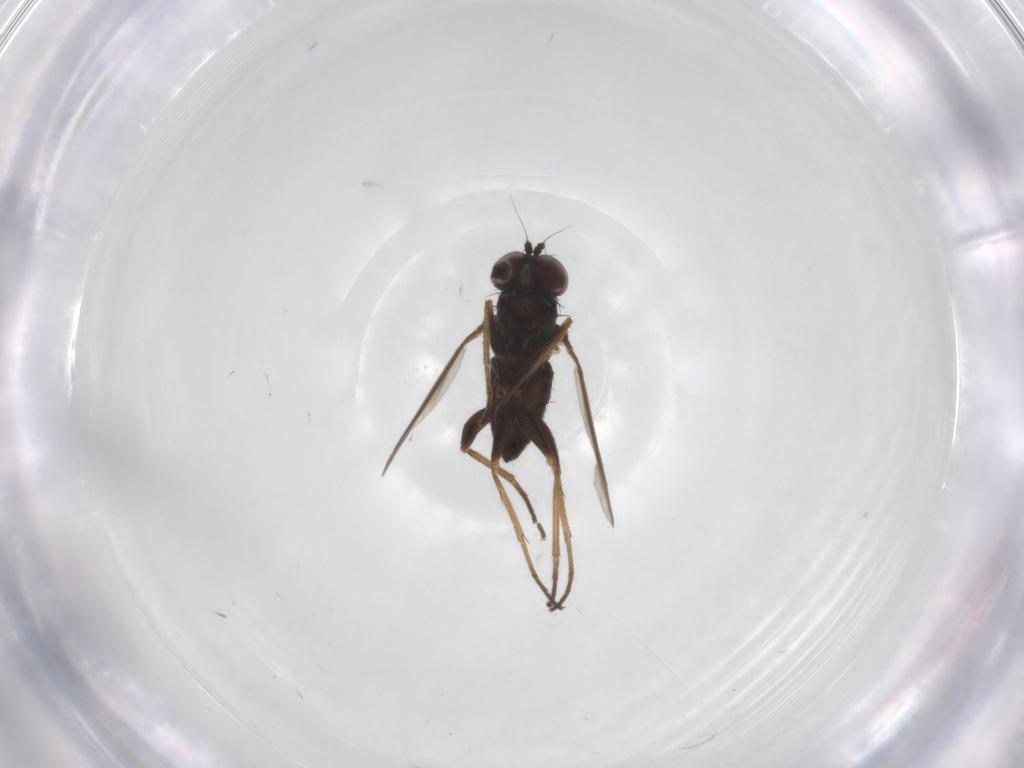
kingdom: Animalia
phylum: Arthropoda
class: Insecta
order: Diptera
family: Dolichopodidae
